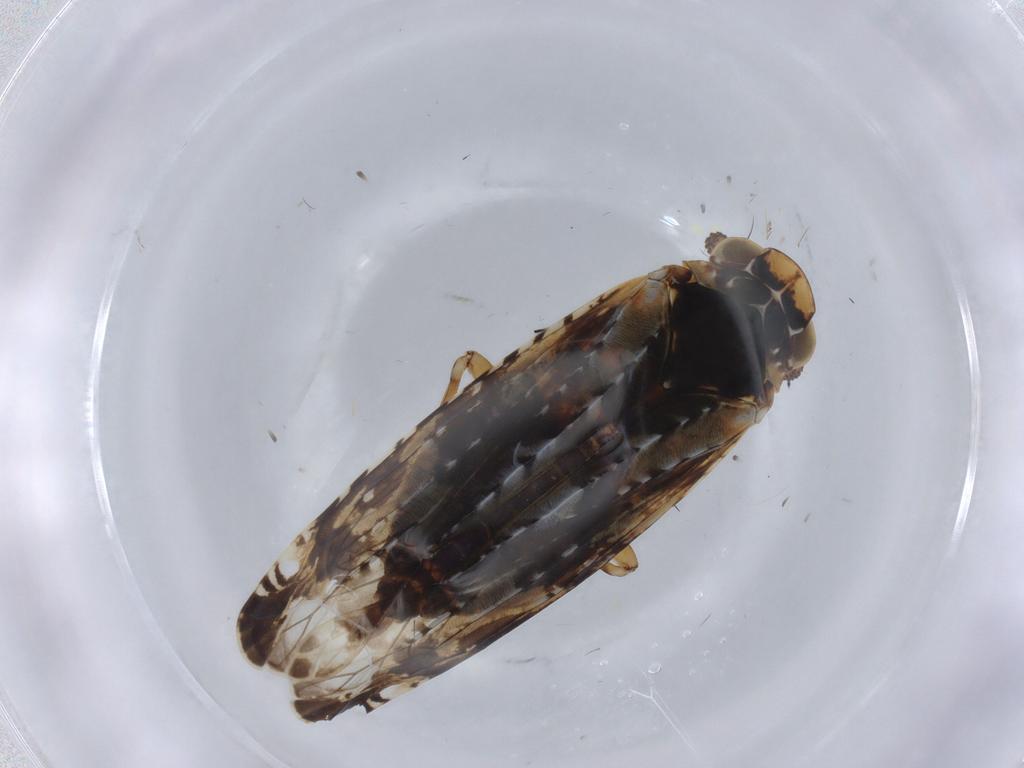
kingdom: Animalia
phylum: Arthropoda
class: Insecta
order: Hemiptera
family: Achilidae
